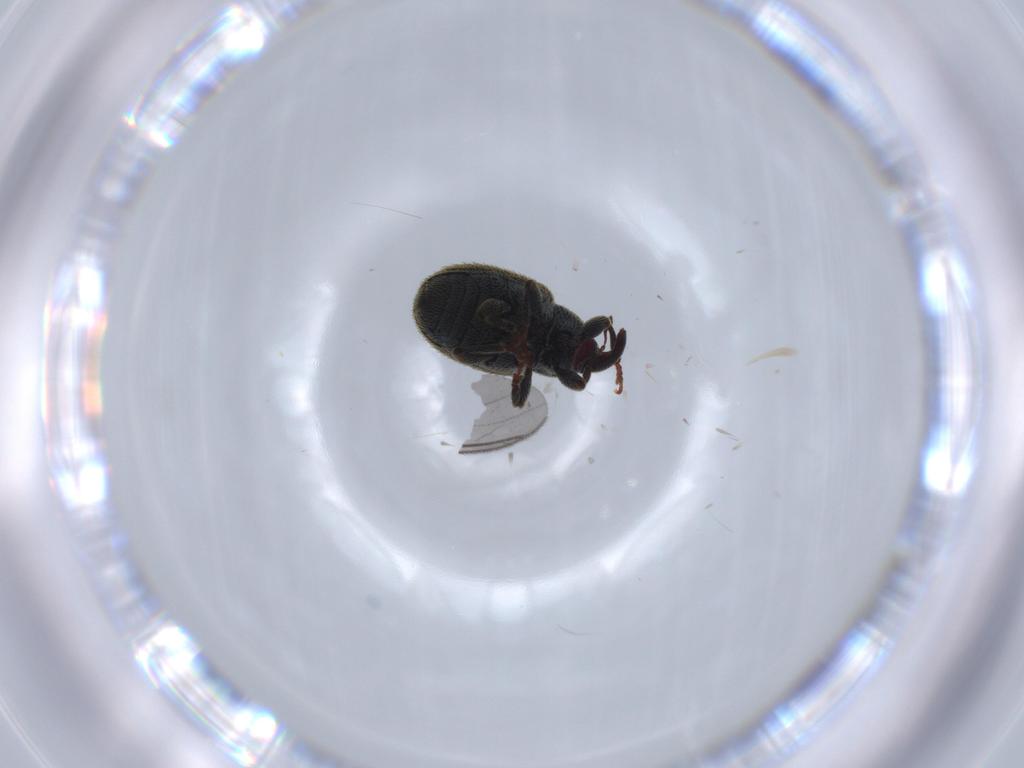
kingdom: Animalia
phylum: Arthropoda
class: Insecta
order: Coleoptera
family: Curculionidae
